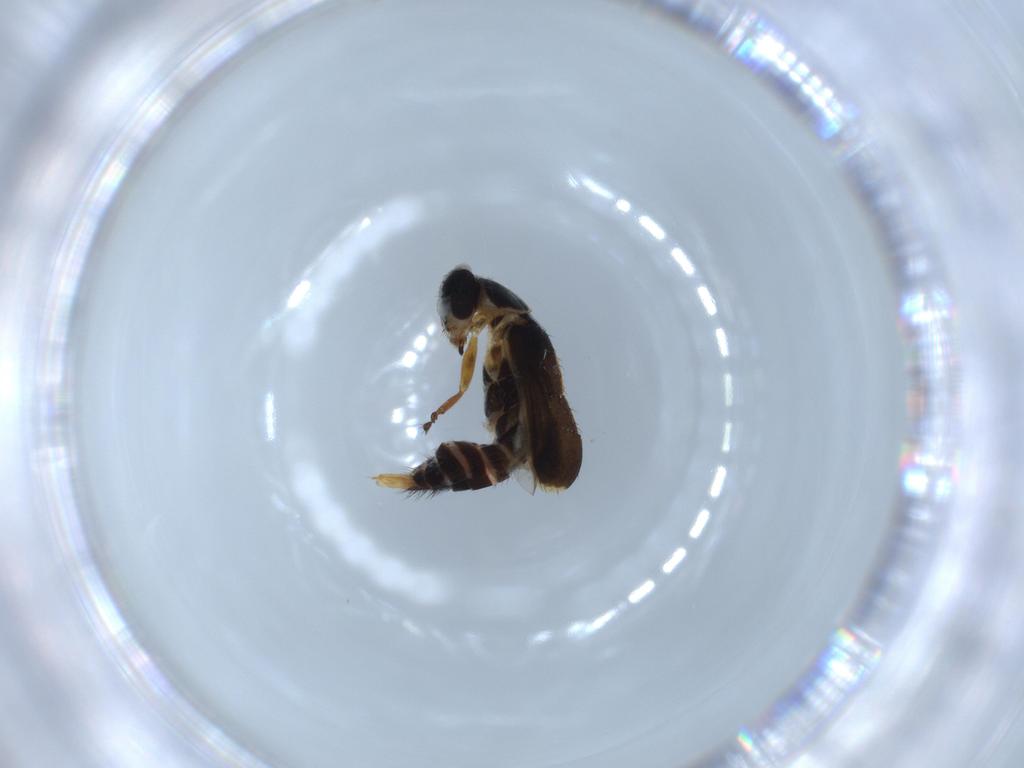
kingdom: Animalia
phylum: Arthropoda
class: Insecta
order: Coleoptera
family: Melyridae
